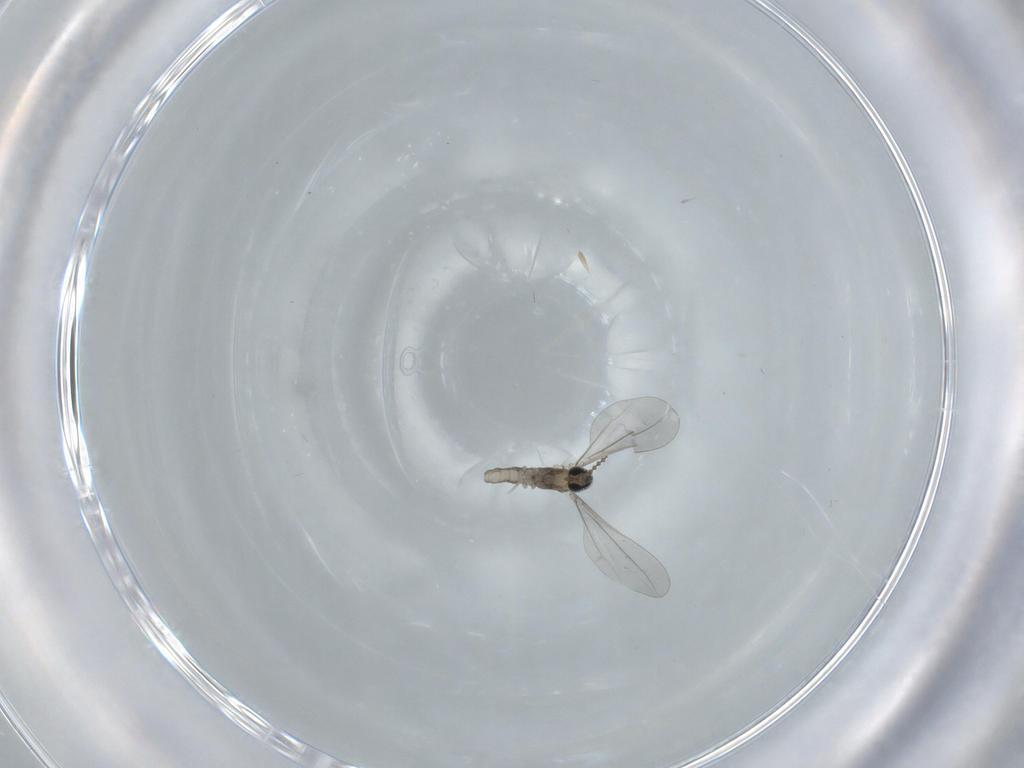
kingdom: Animalia
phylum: Arthropoda
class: Insecta
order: Diptera
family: Cecidomyiidae
